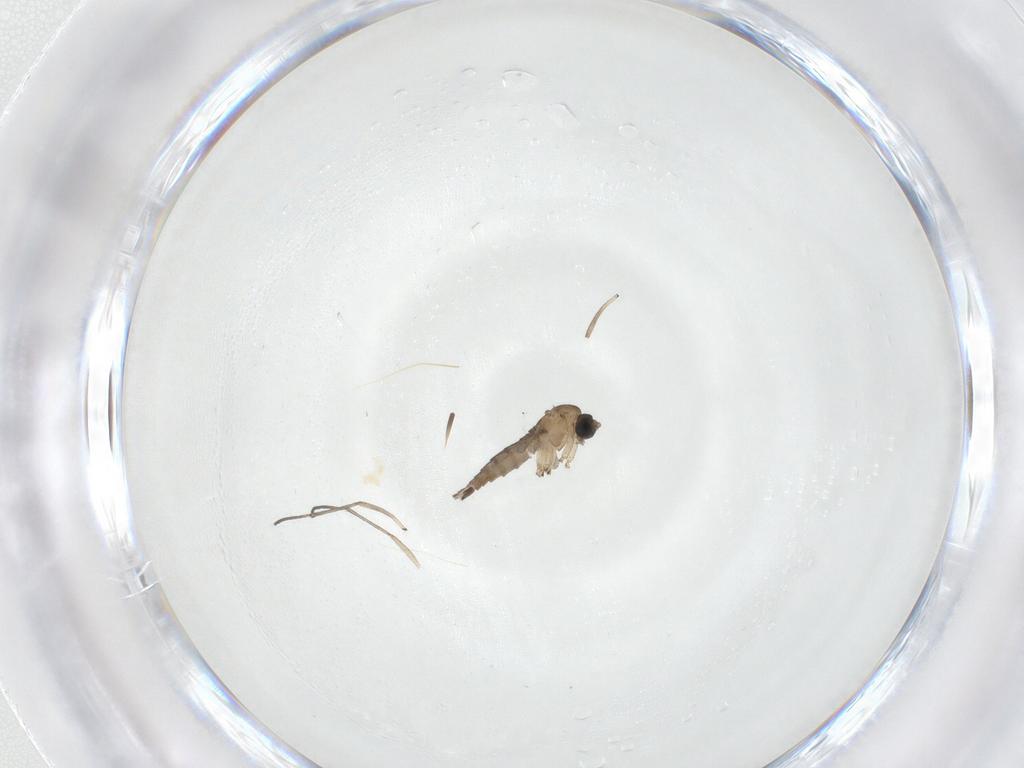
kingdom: Animalia
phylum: Arthropoda
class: Insecta
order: Diptera
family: Sciaridae
